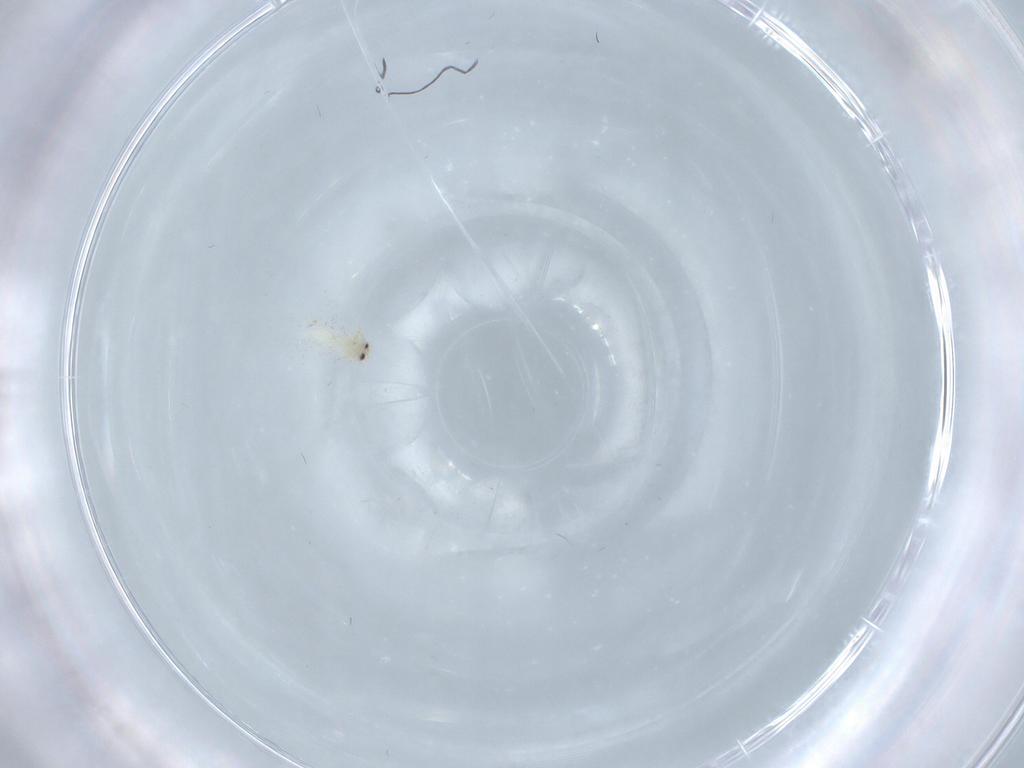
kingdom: Animalia
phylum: Arthropoda
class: Insecta
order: Hemiptera
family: Aleyrodidae
